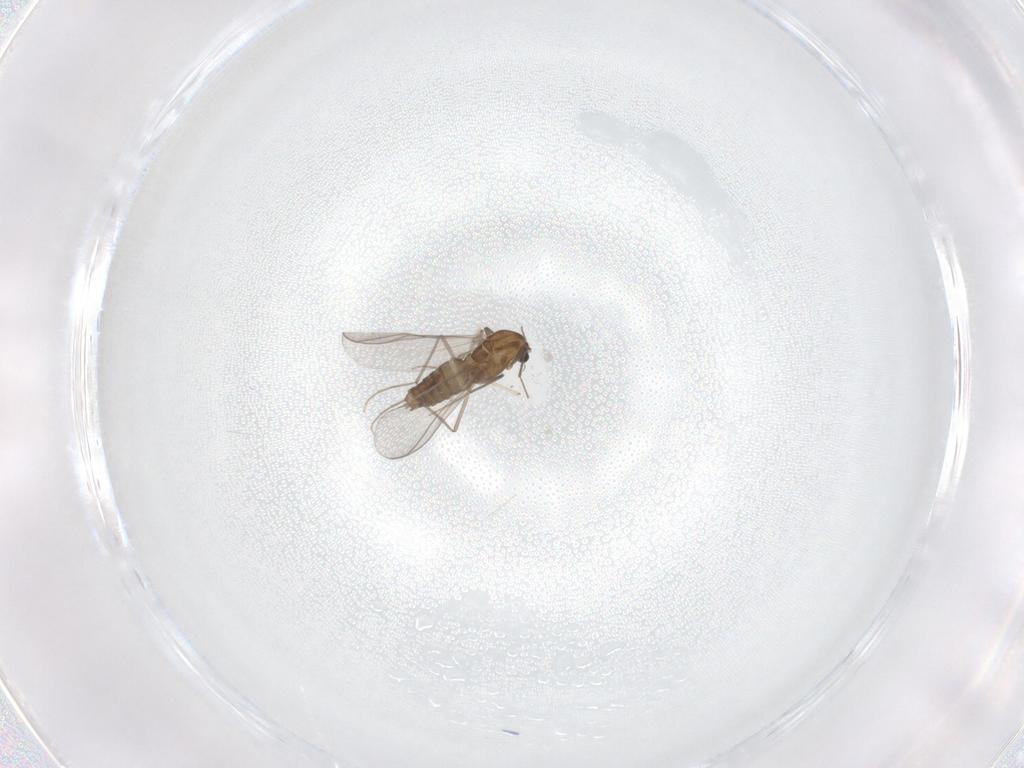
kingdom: Animalia
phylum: Arthropoda
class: Insecta
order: Diptera
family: Chironomidae
